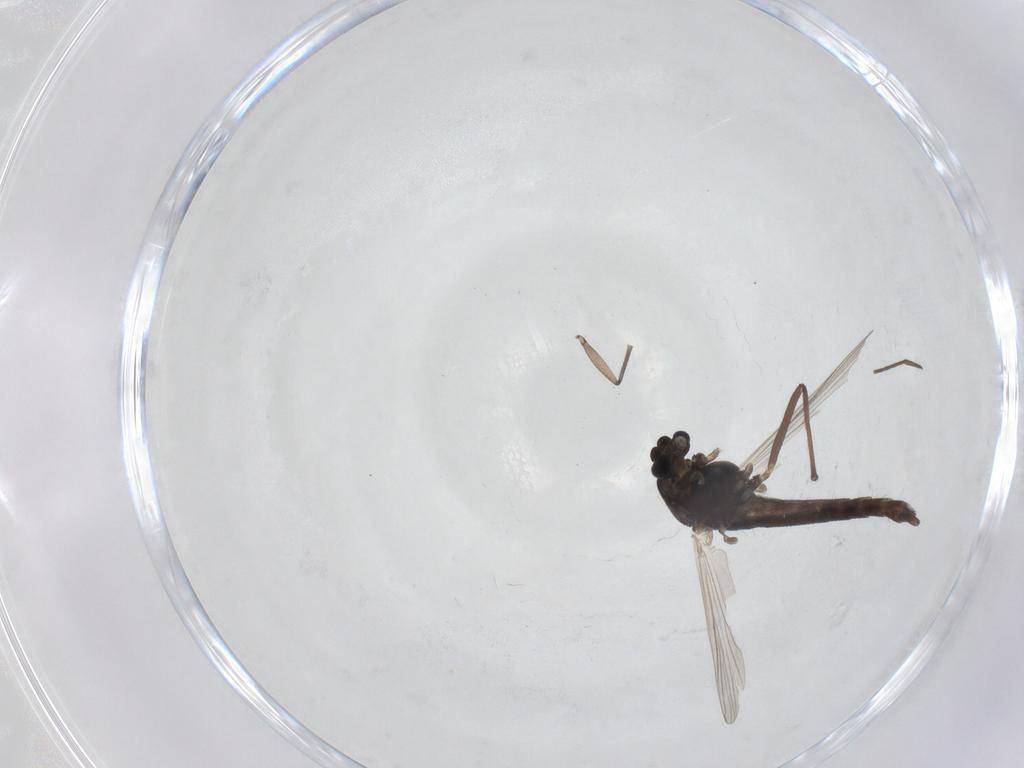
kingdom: Animalia
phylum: Arthropoda
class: Insecta
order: Diptera
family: Chironomidae
